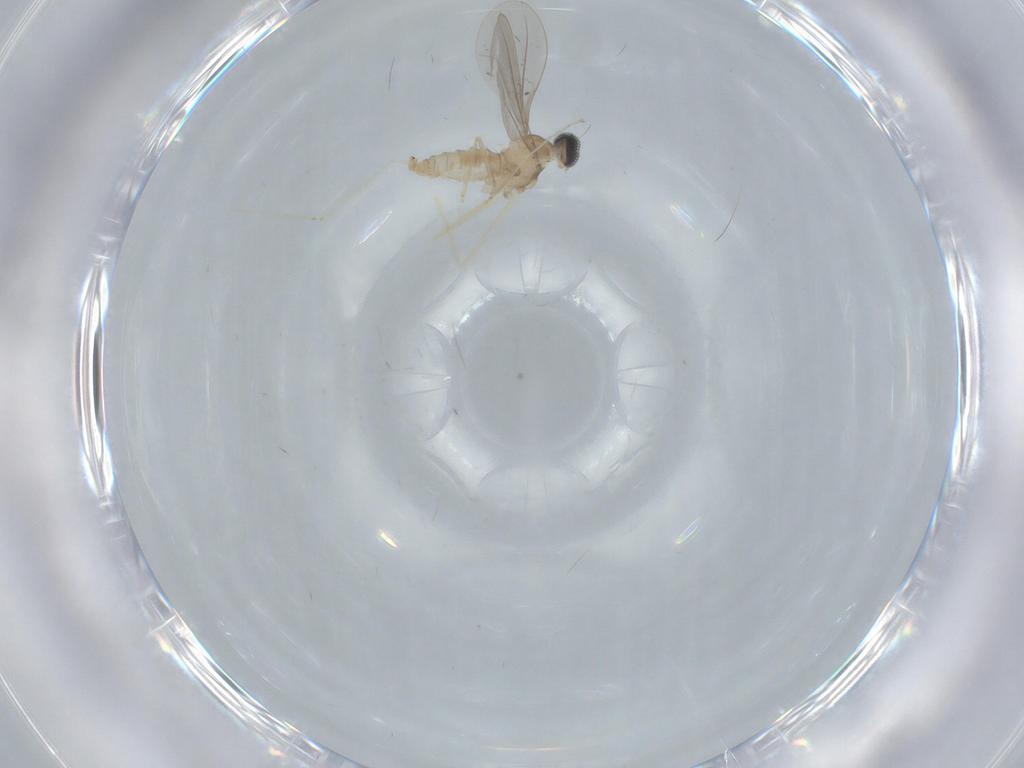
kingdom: Animalia
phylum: Arthropoda
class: Insecta
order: Diptera
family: Cecidomyiidae
